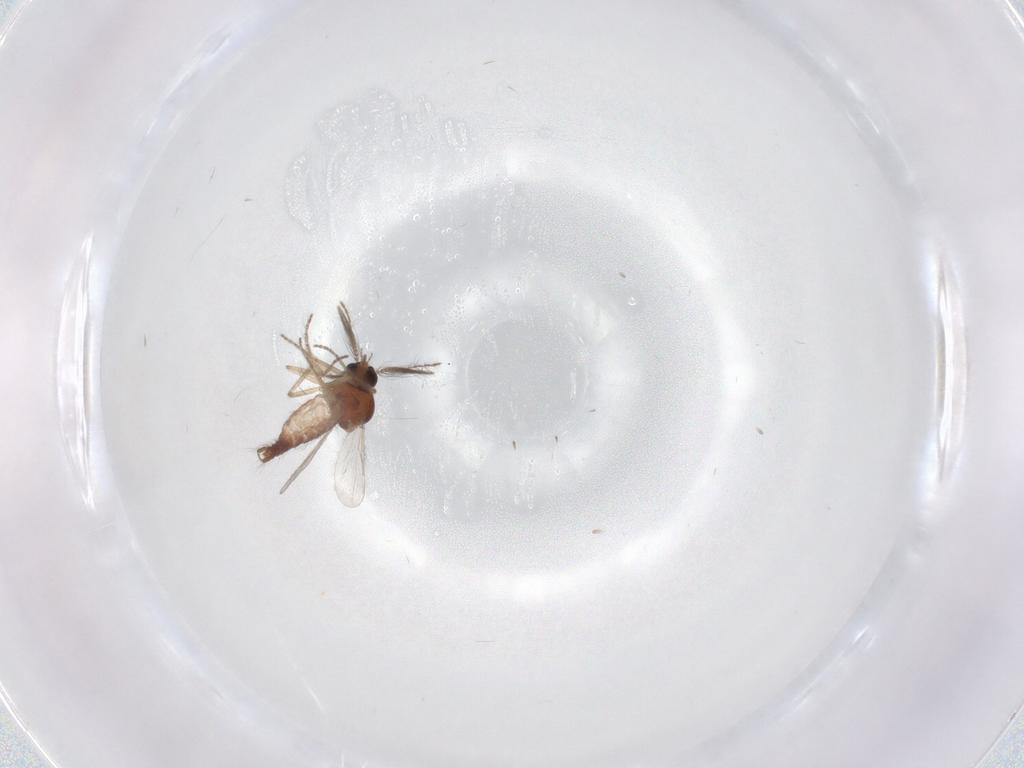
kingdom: Animalia
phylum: Arthropoda
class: Insecta
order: Diptera
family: Ceratopogonidae
